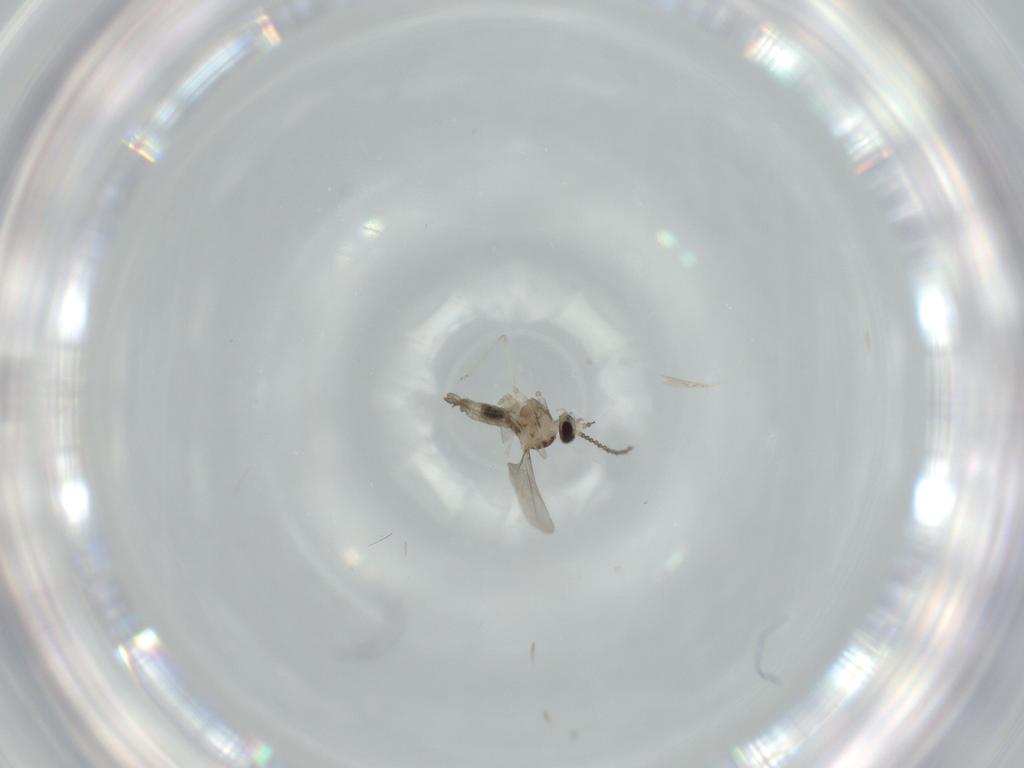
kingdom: Animalia
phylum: Arthropoda
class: Insecta
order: Diptera
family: Cecidomyiidae
